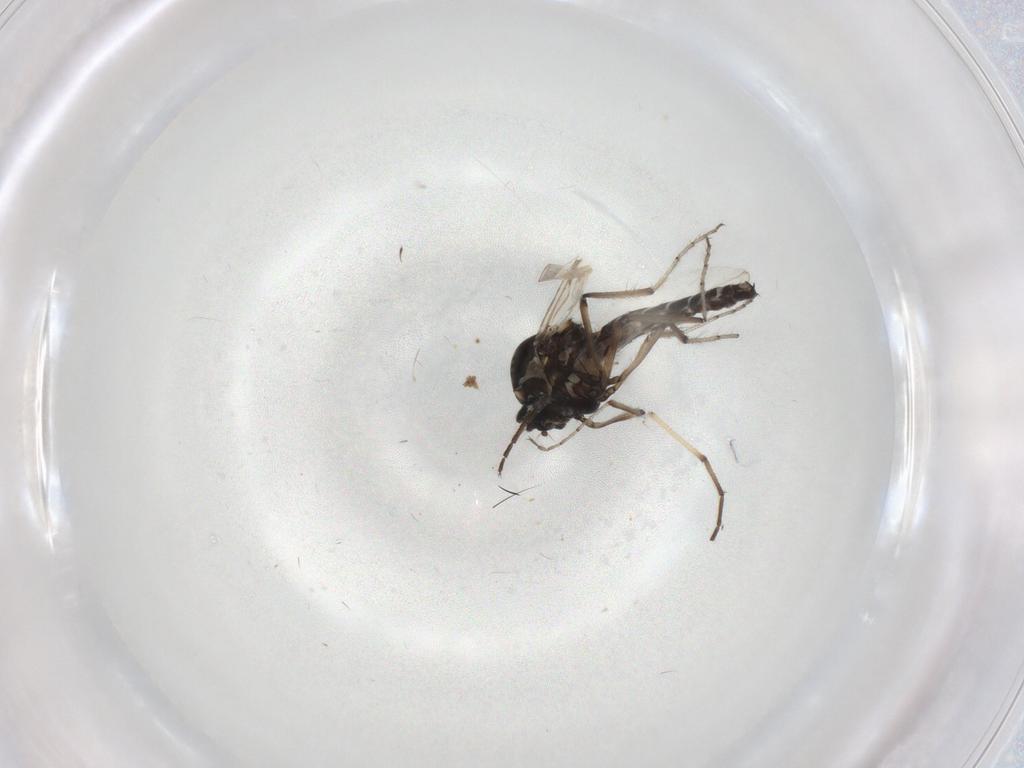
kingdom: Animalia
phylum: Arthropoda
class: Insecta
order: Diptera
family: Ceratopogonidae
